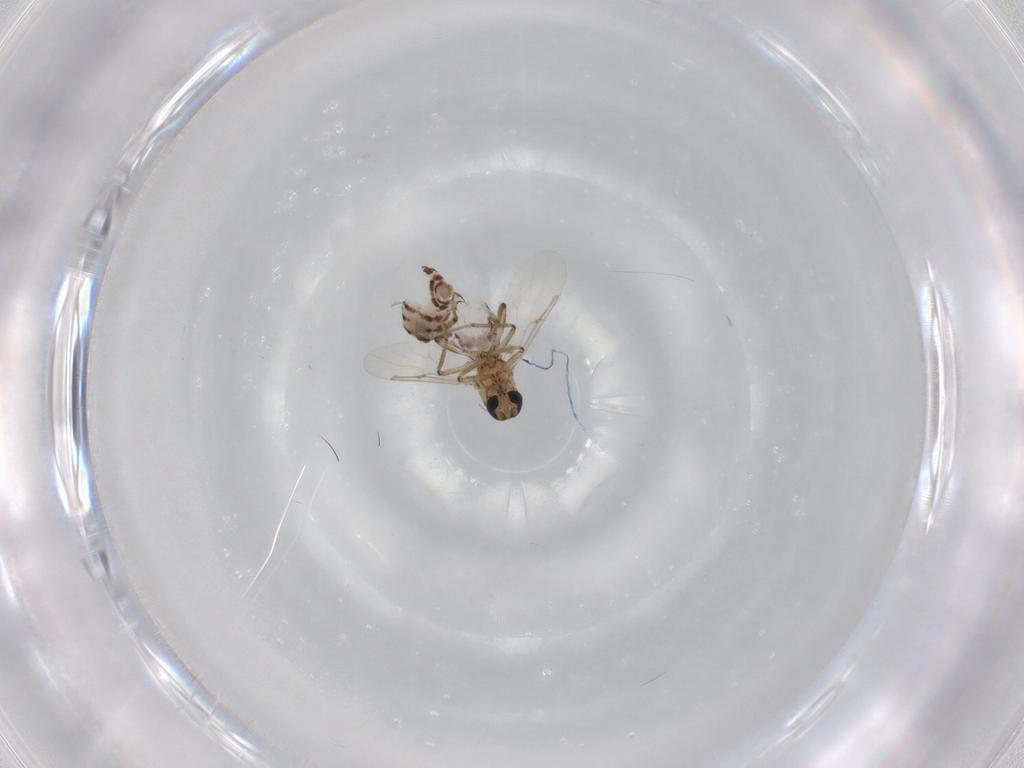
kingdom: Animalia
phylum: Arthropoda
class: Insecta
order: Diptera
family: Ceratopogonidae
